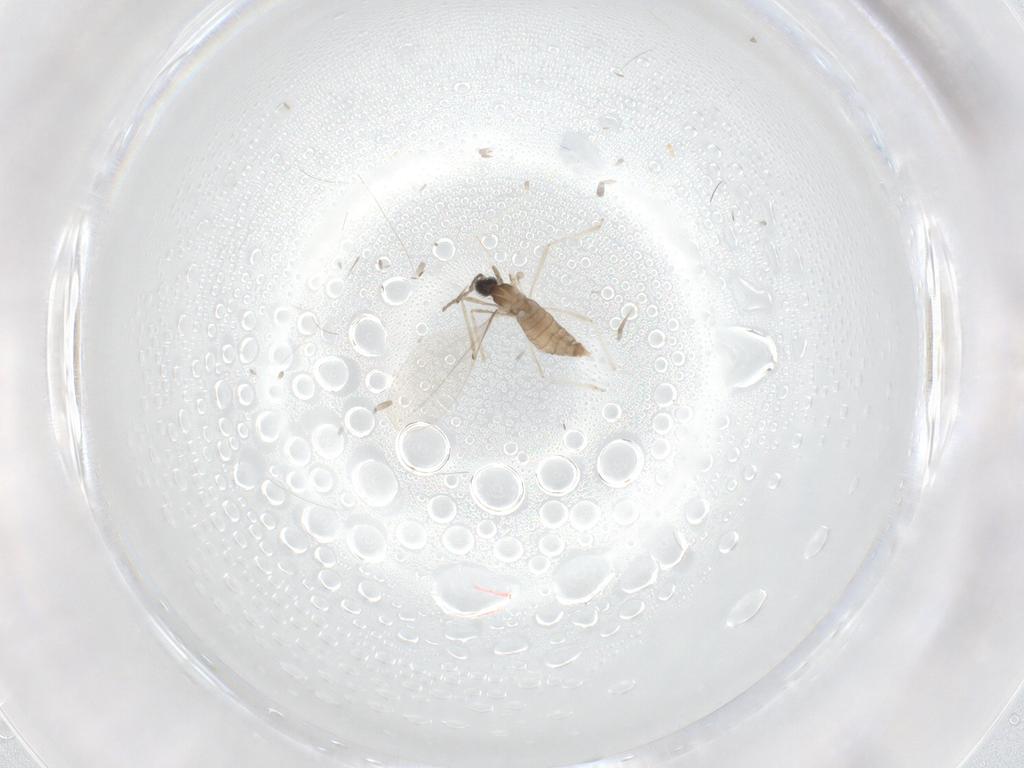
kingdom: Animalia
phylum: Arthropoda
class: Insecta
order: Diptera
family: Cecidomyiidae
